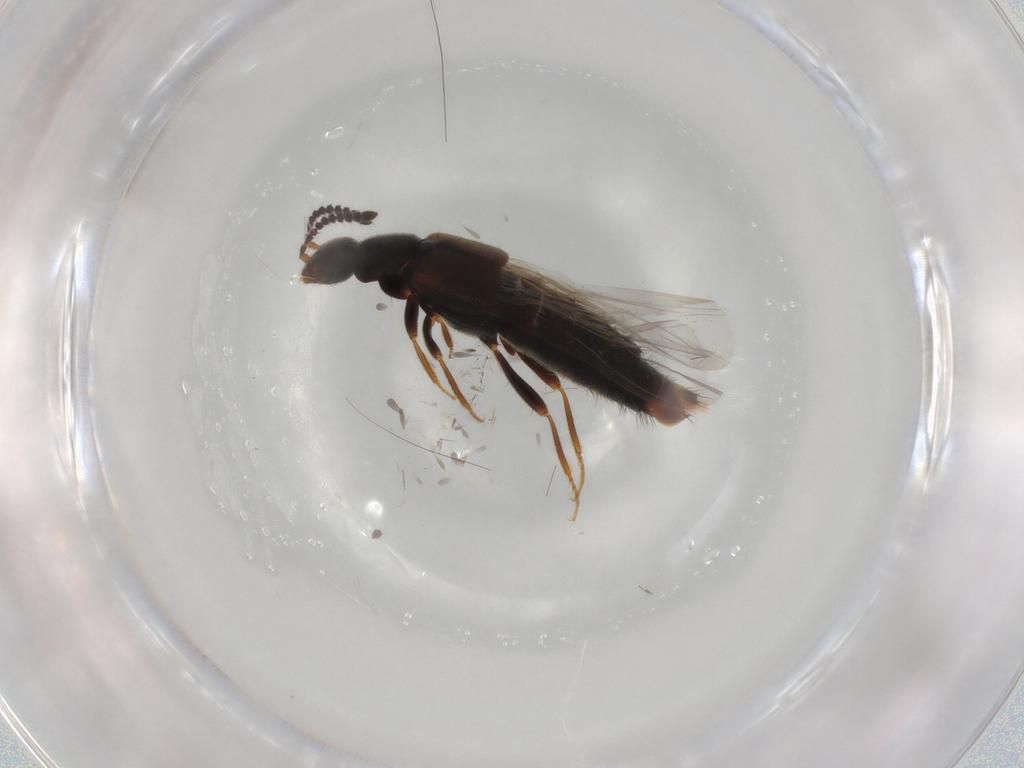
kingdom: Animalia
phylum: Arthropoda
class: Insecta
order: Coleoptera
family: Staphylinidae
